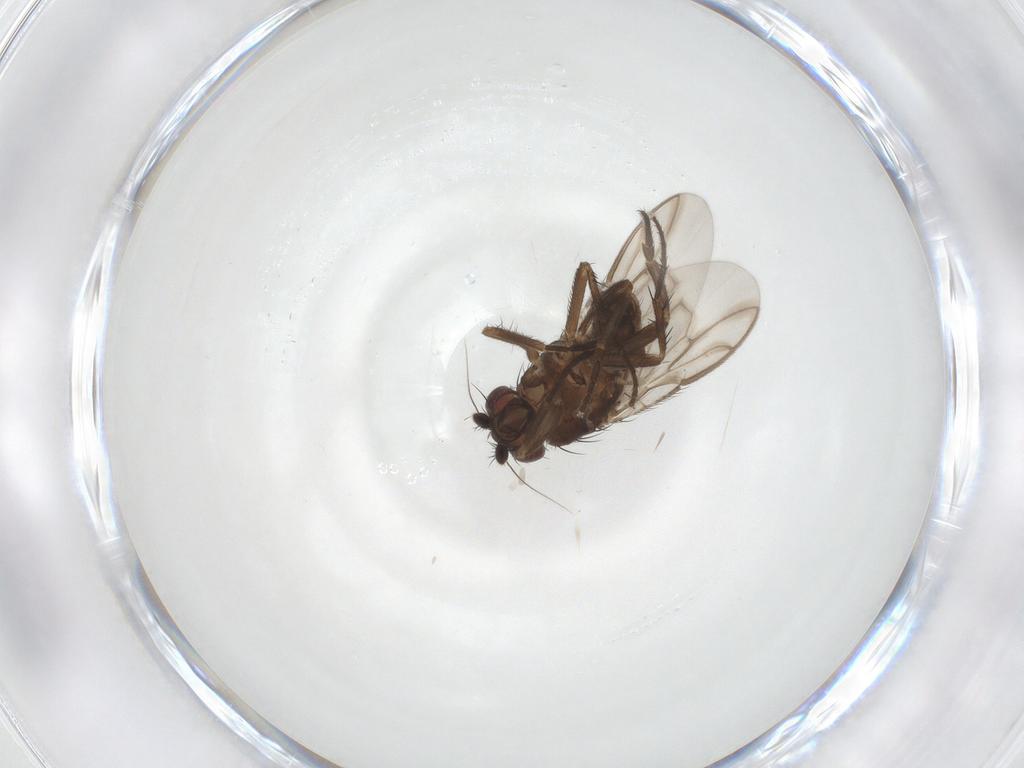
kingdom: Animalia
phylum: Arthropoda
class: Insecta
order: Diptera
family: Sphaeroceridae
